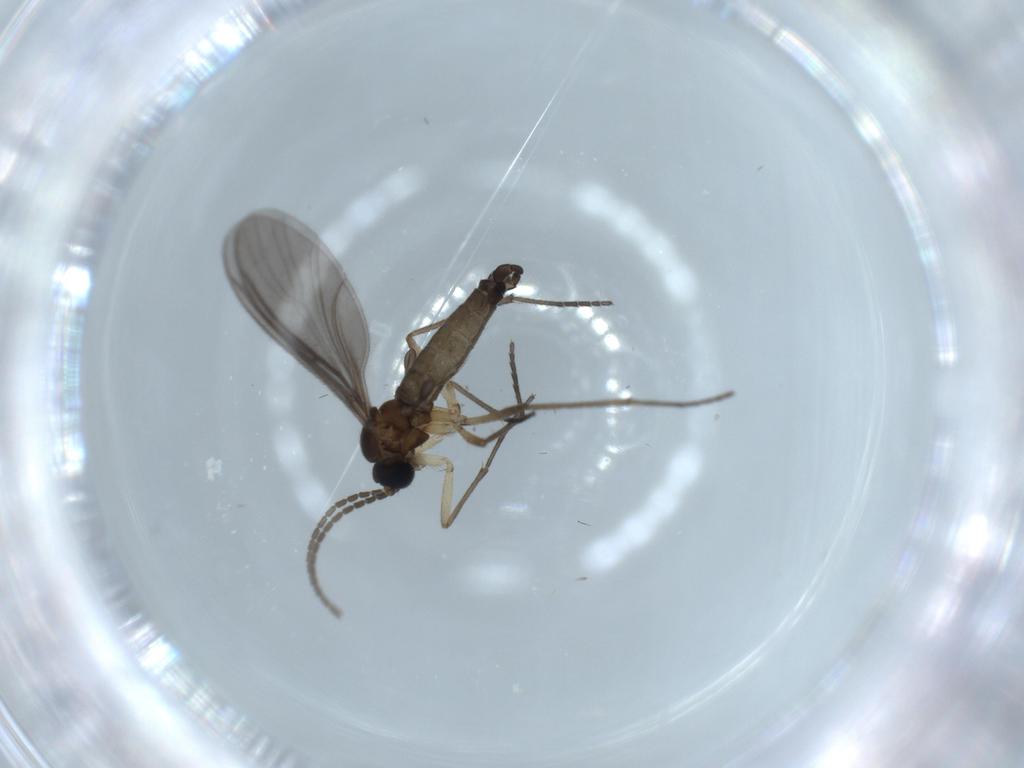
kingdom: Animalia
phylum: Arthropoda
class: Insecta
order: Diptera
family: Sciaridae
